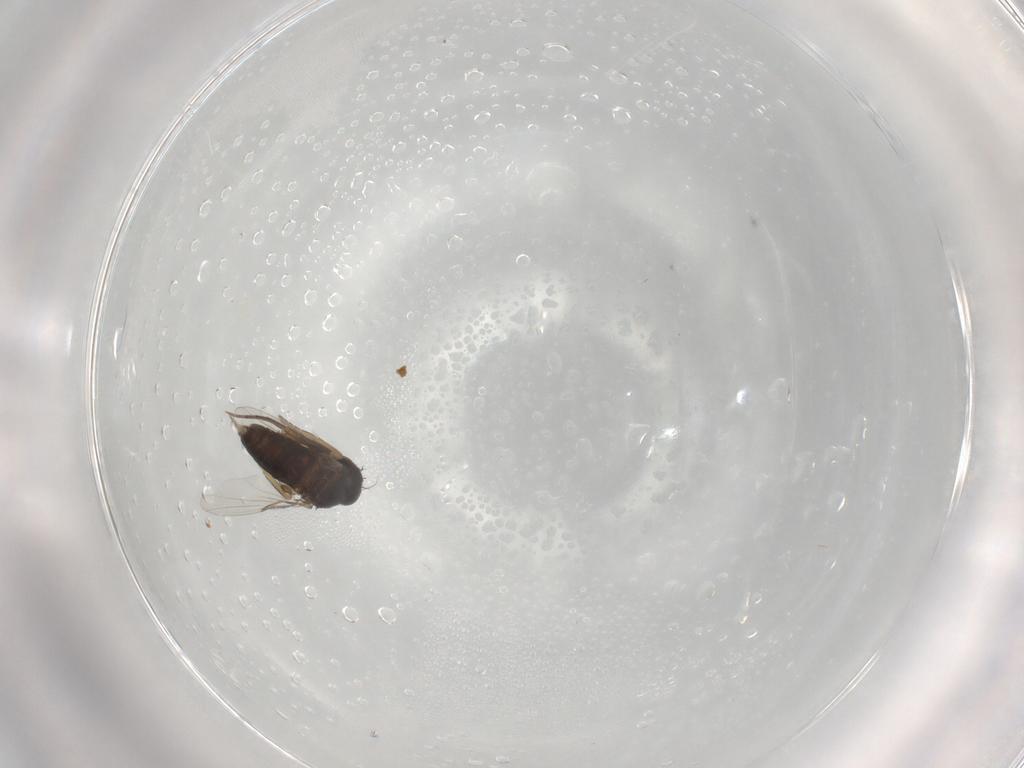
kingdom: Animalia
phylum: Arthropoda
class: Insecta
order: Diptera
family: Phoridae
